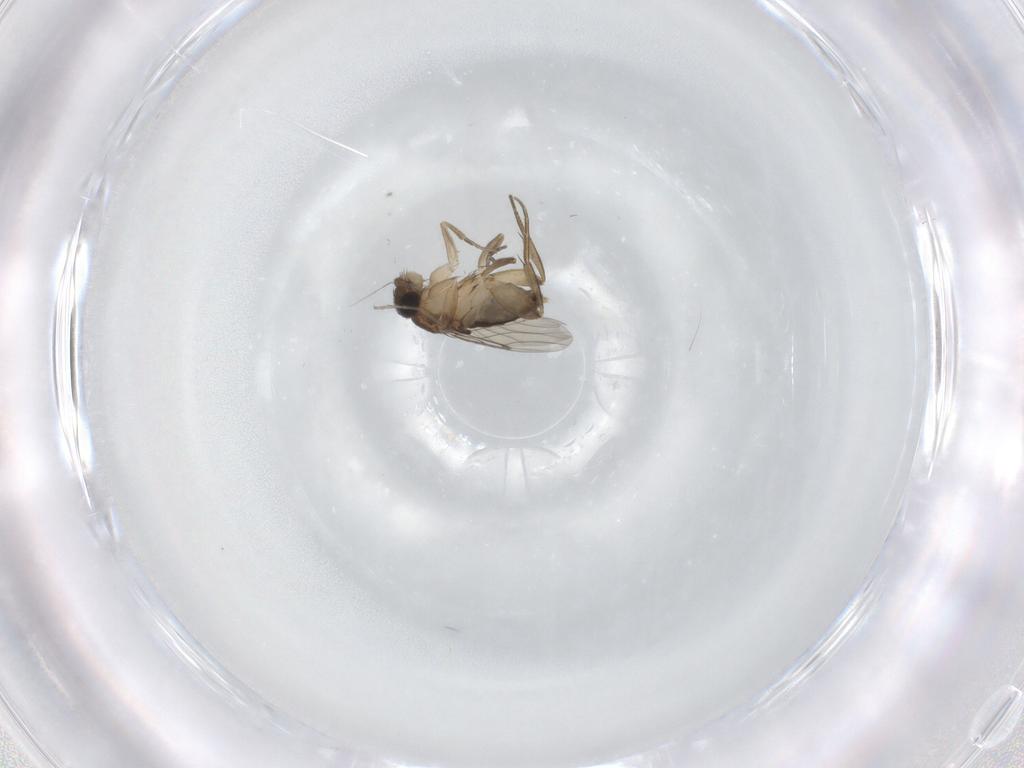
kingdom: Animalia
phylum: Arthropoda
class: Insecta
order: Diptera
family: Phoridae
